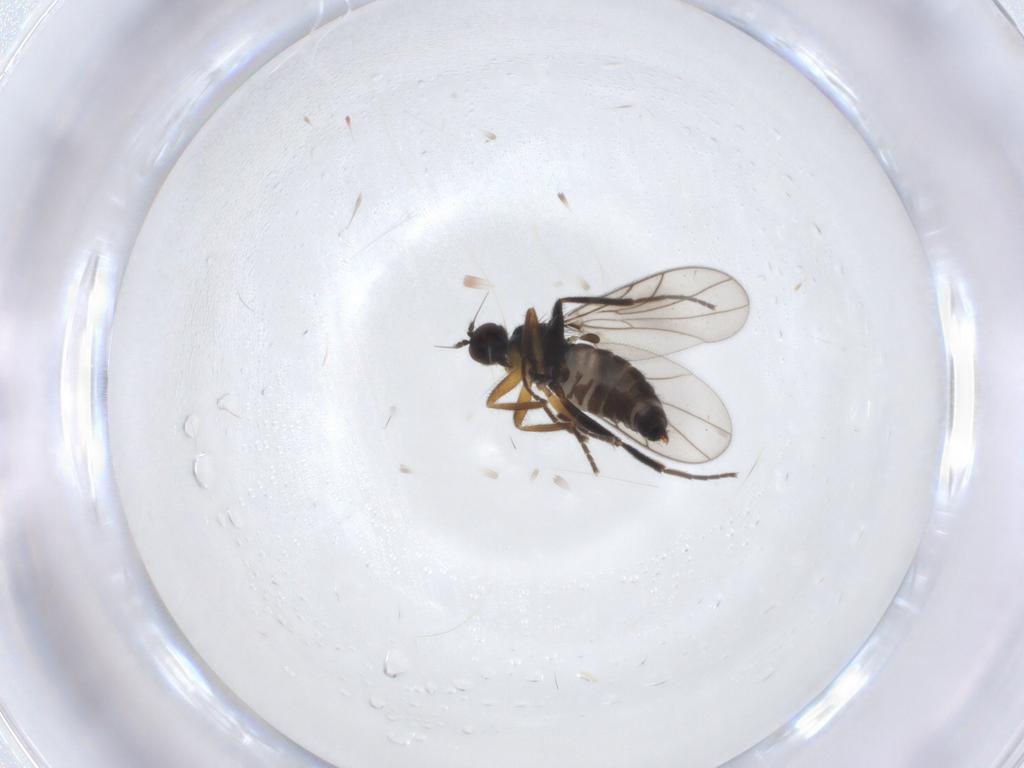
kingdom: Animalia
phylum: Arthropoda
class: Insecta
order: Diptera
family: Hybotidae
